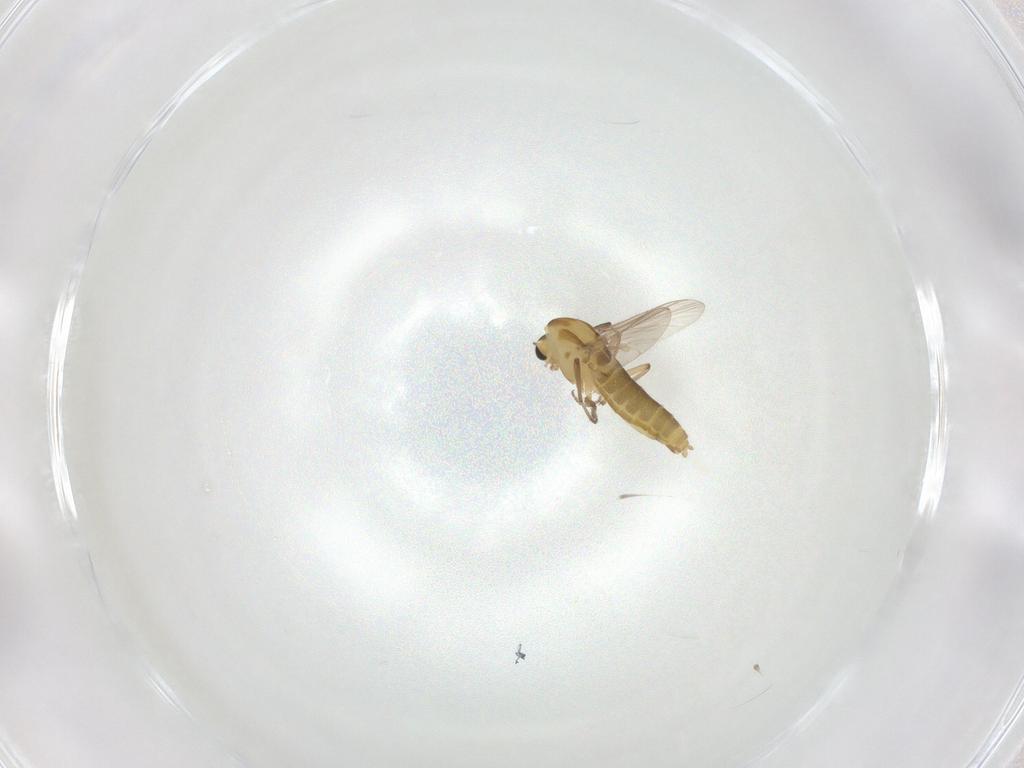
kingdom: Animalia
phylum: Arthropoda
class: Insecta
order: Diptera
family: Chironomidae
